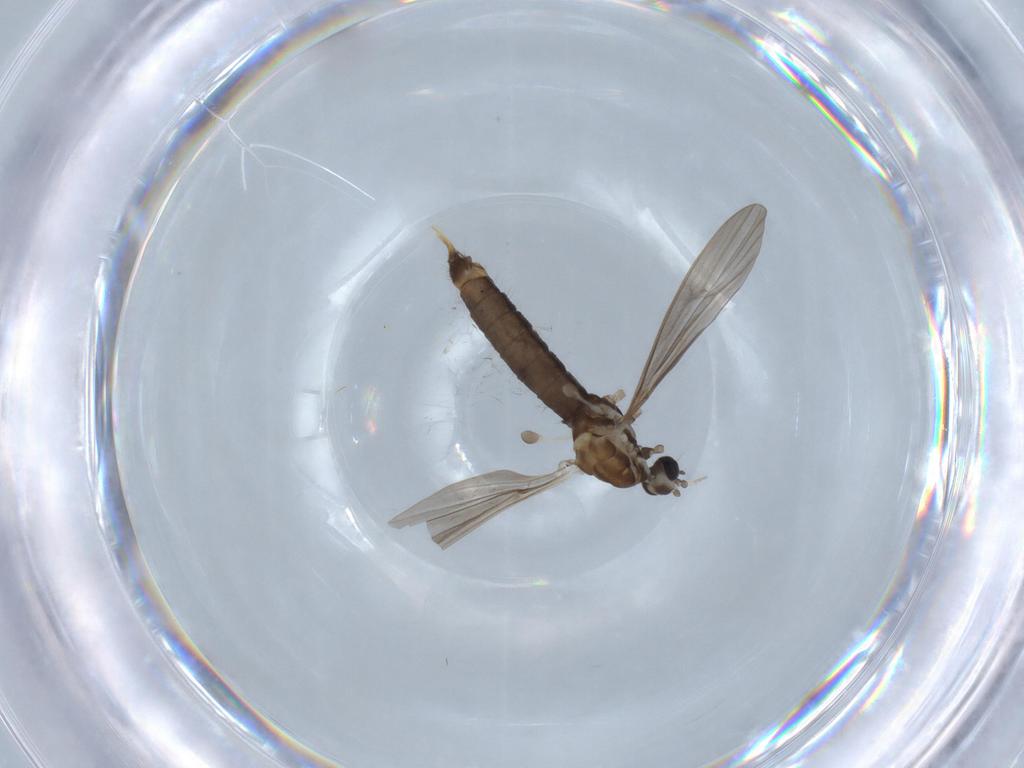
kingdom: Animalia
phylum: Arthropoda
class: Insecta
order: Diptera
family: Limoniidae
